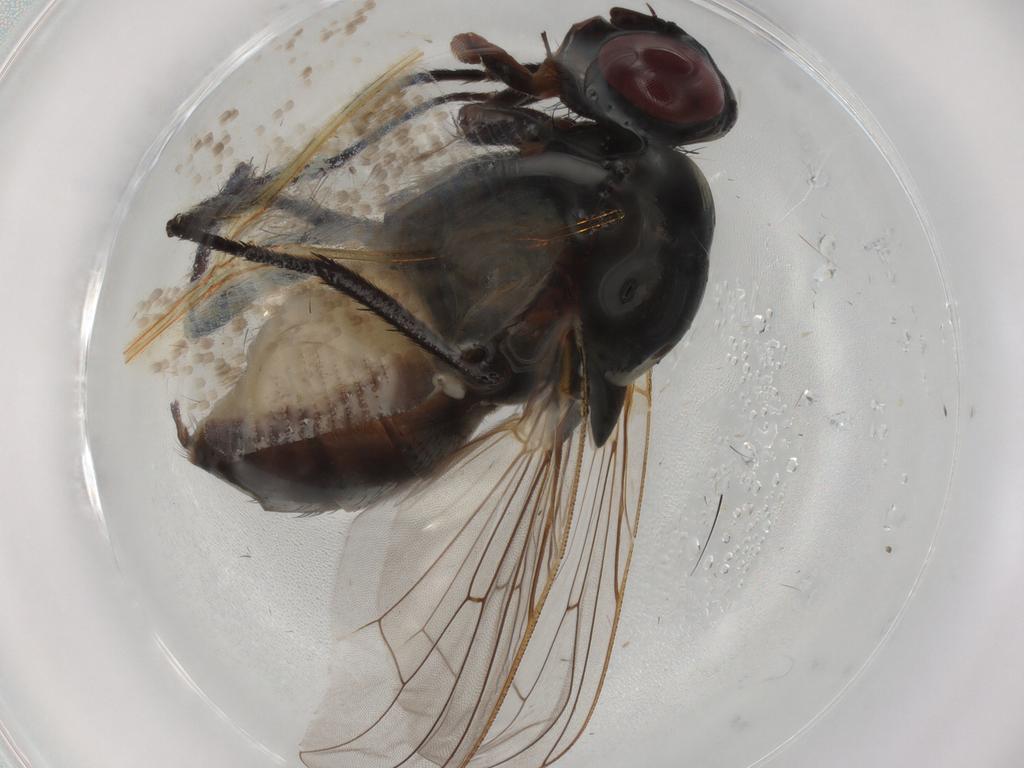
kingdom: Animalia
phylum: Arthropoda
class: Insecta
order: Diptera
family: Anthomyiidae
